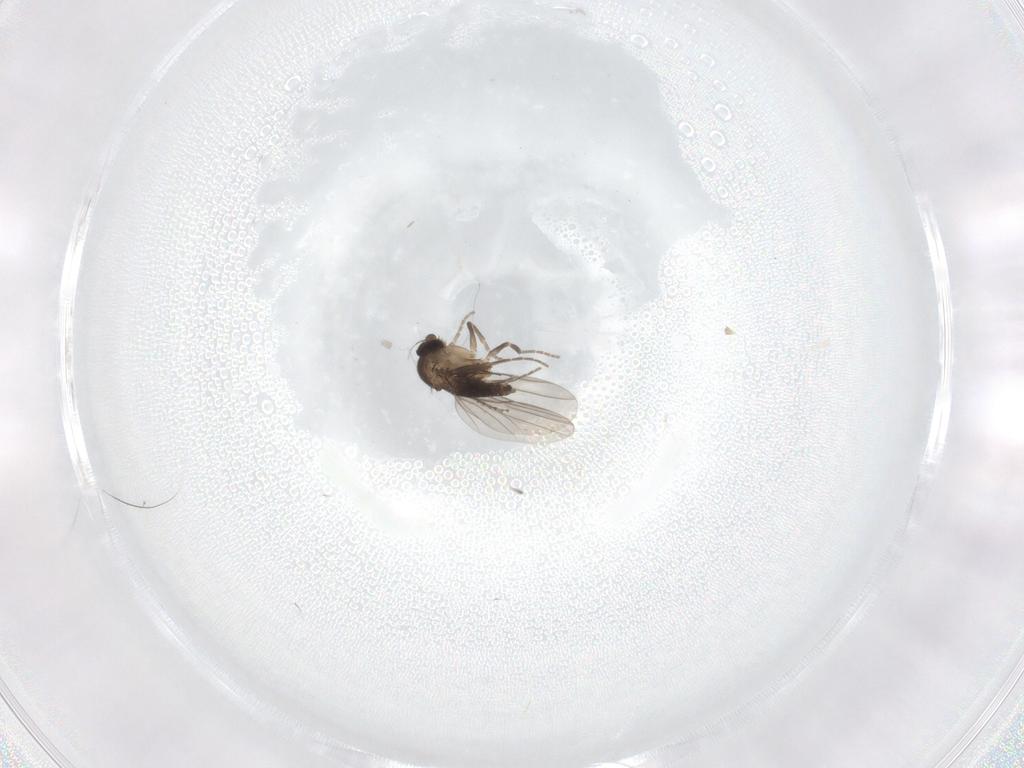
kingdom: Animalia
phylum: Arthropoda
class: Insecta
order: Diptera
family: Cecidomyiidae
